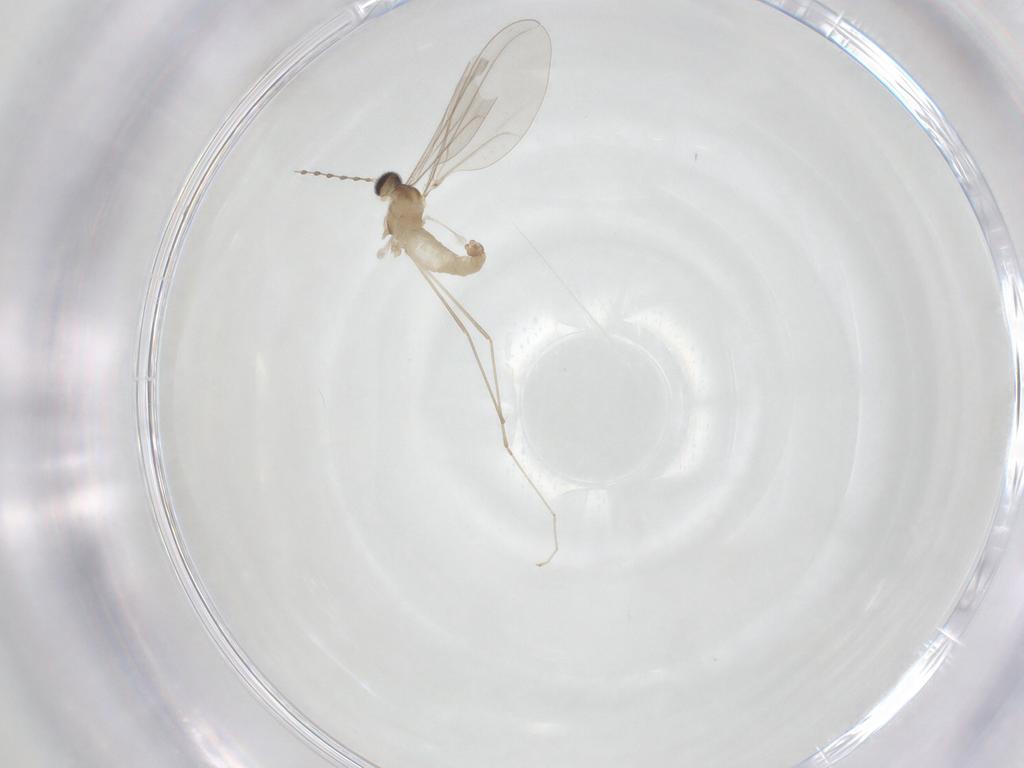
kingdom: Animalia
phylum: Arthropoda
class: Insecta
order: Diptera
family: Cecidomyiidae
